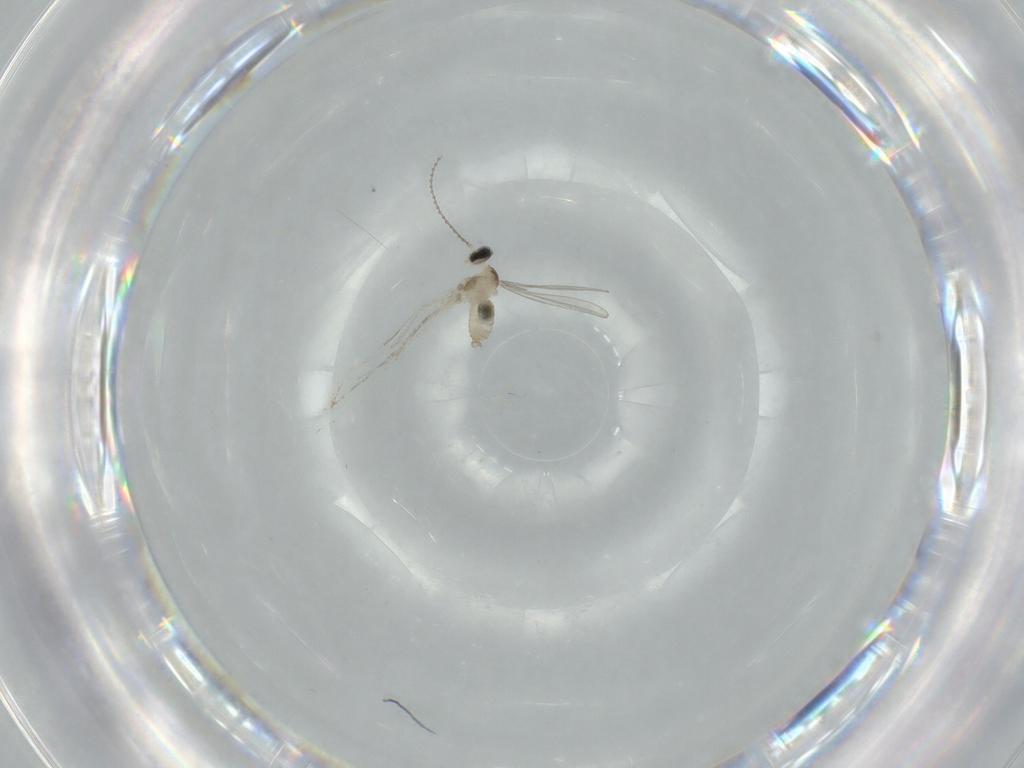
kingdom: Animalia
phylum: Arthropoda
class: Insecta
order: Diptera
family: Cecidomyiidae
